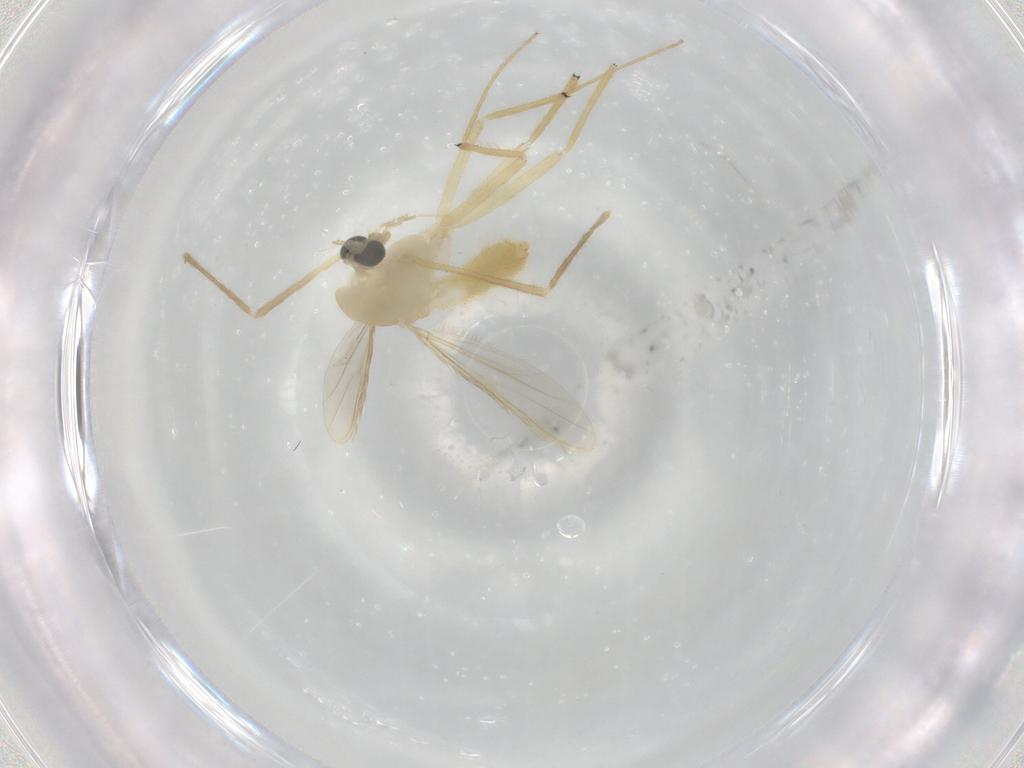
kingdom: Animalia
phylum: Arthropoda
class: Insecta
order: Diptera
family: Chironomidae
